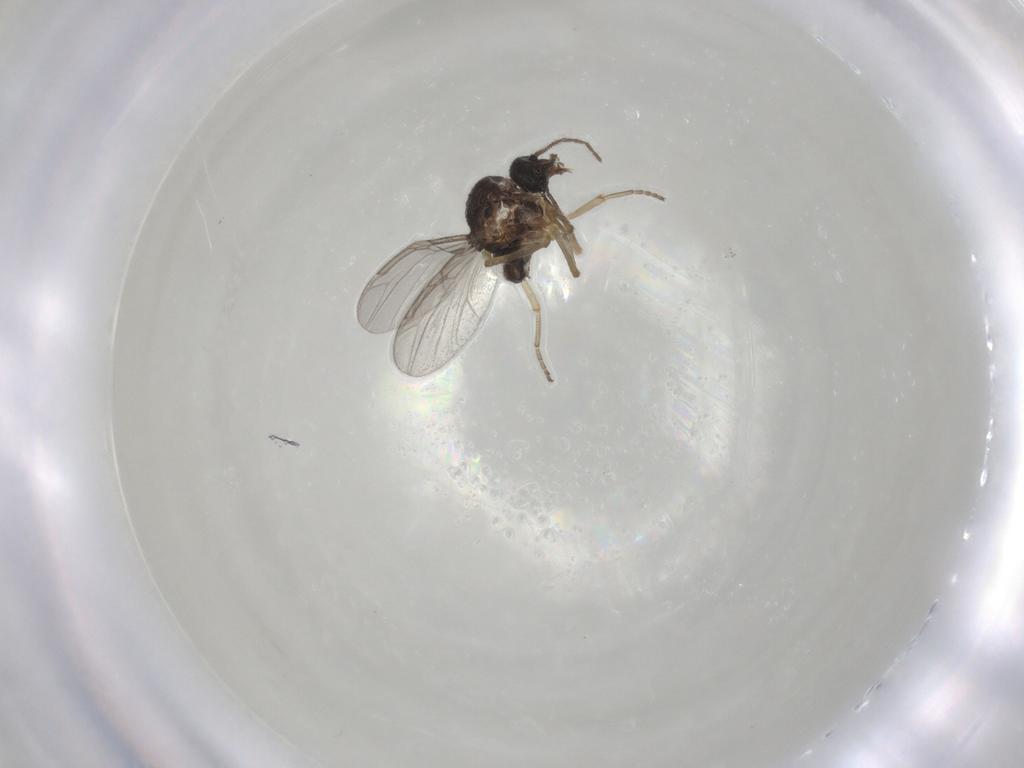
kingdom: Animalia
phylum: Arthropoda
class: Insecta
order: Diptera
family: Ceratopogonidae
